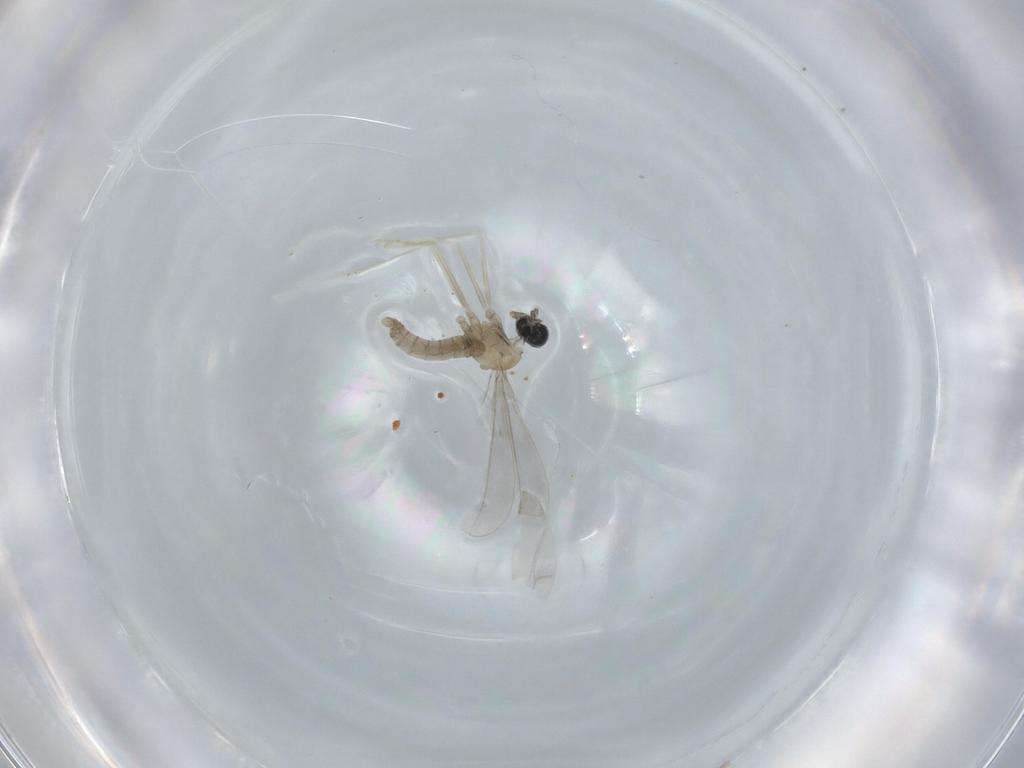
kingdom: Animalia
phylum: Arthropoda
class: Insecta
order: Diptera
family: Cecidomyiidae
